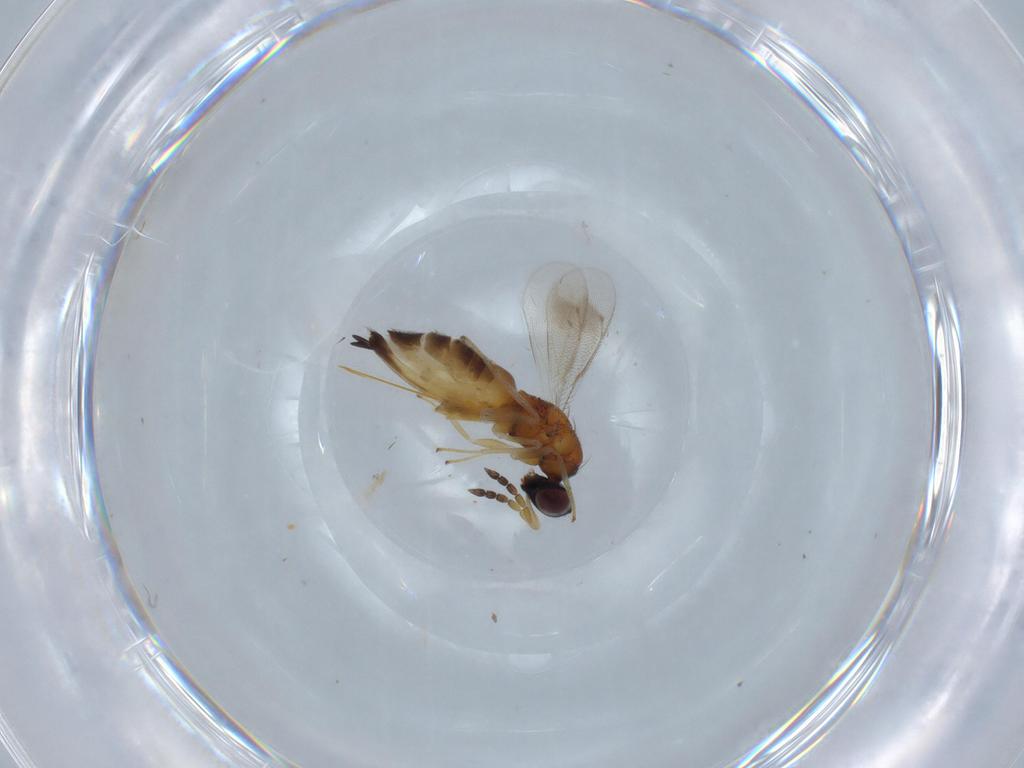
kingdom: Animalia
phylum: Arthropoda
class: Insecta
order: Hymenoptera
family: Eulophidae
